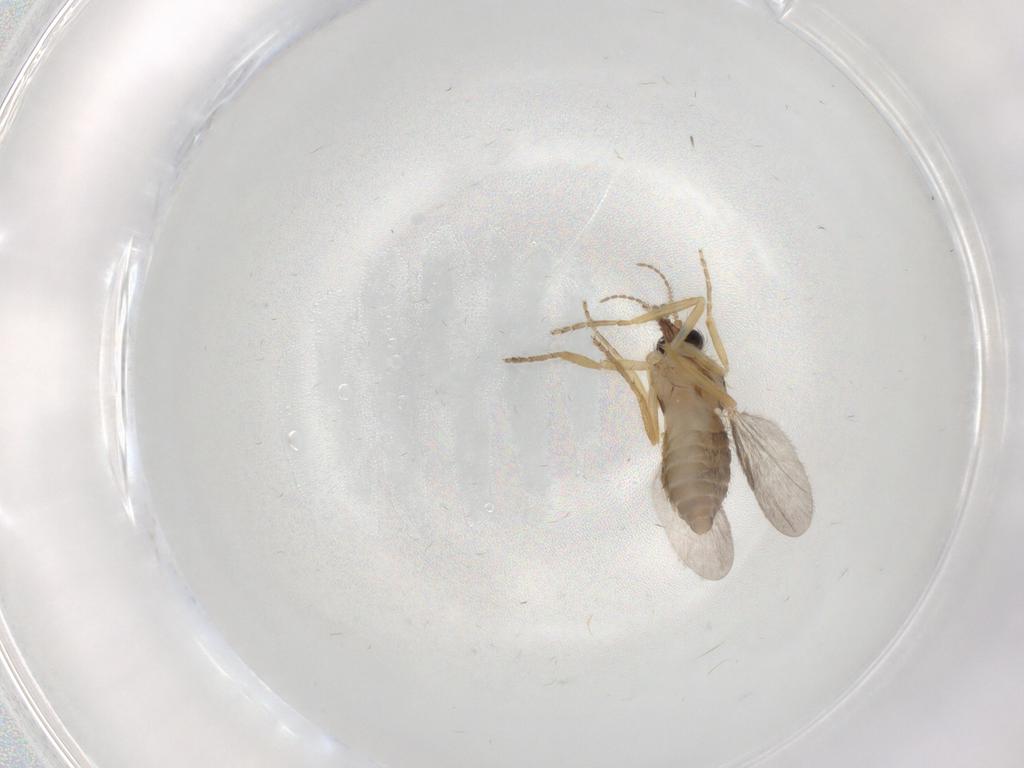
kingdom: Animalia
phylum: Arthropoda
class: Insecta
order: Diptera
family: Ceratopogonidae
